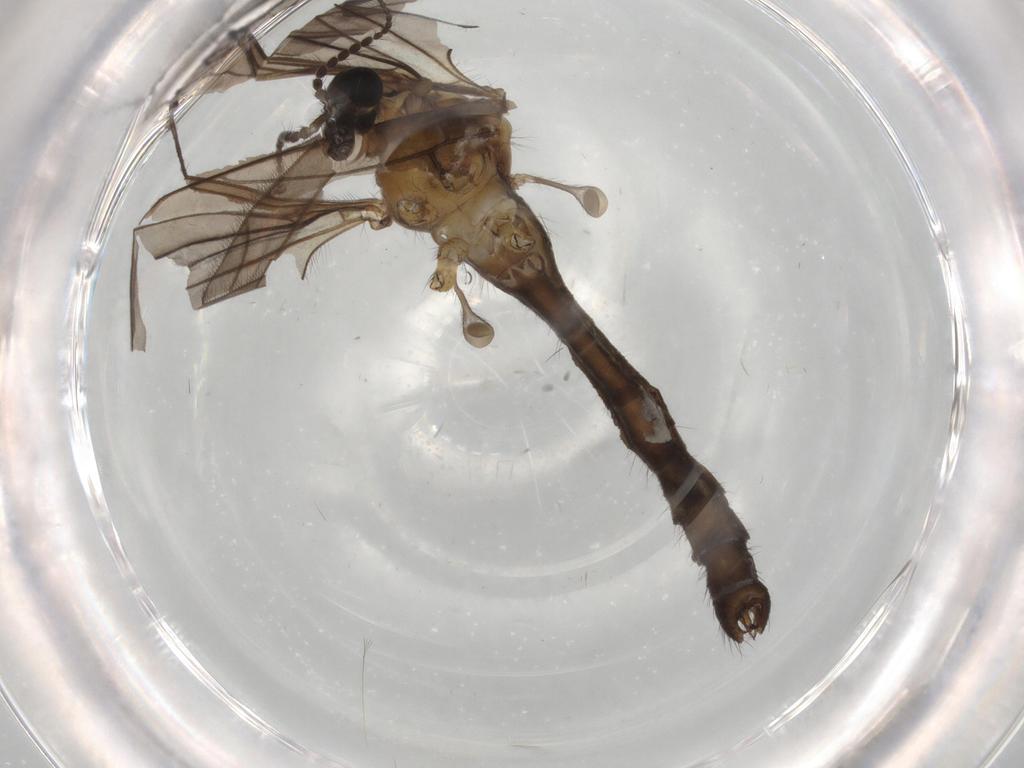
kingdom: Animalia
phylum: Arthropoda
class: Insecta
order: Diptera
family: Limoniidae
